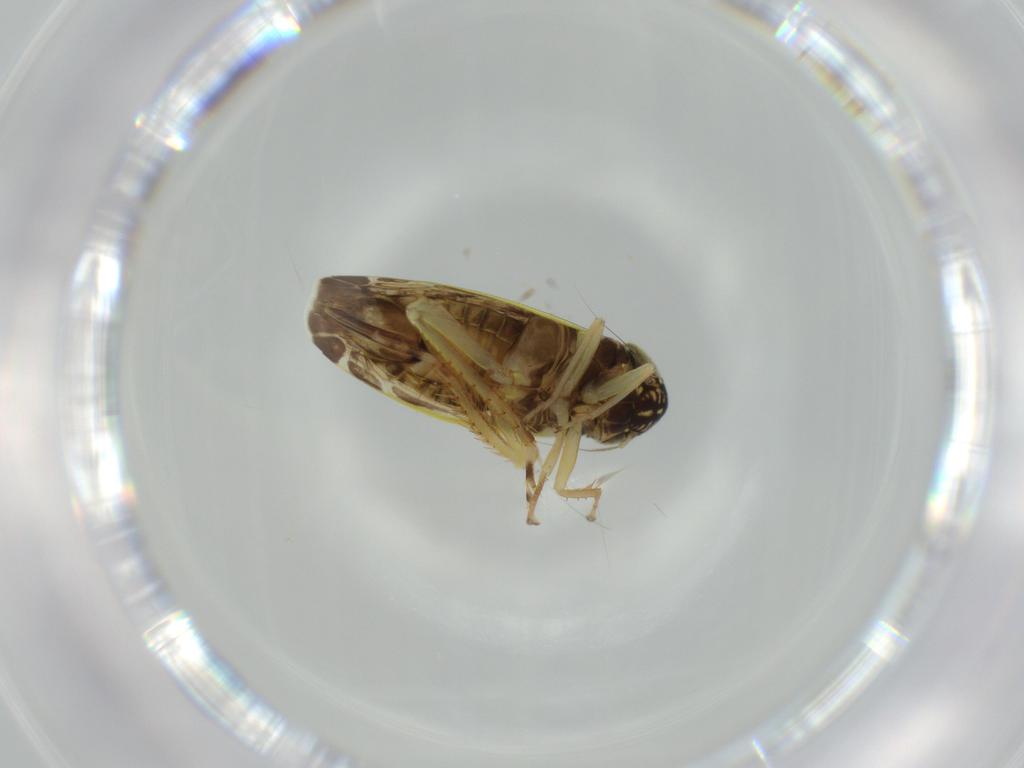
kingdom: Animalia
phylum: Arthropoda
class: Insecta
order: Hemiptera
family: Cicadellidae
